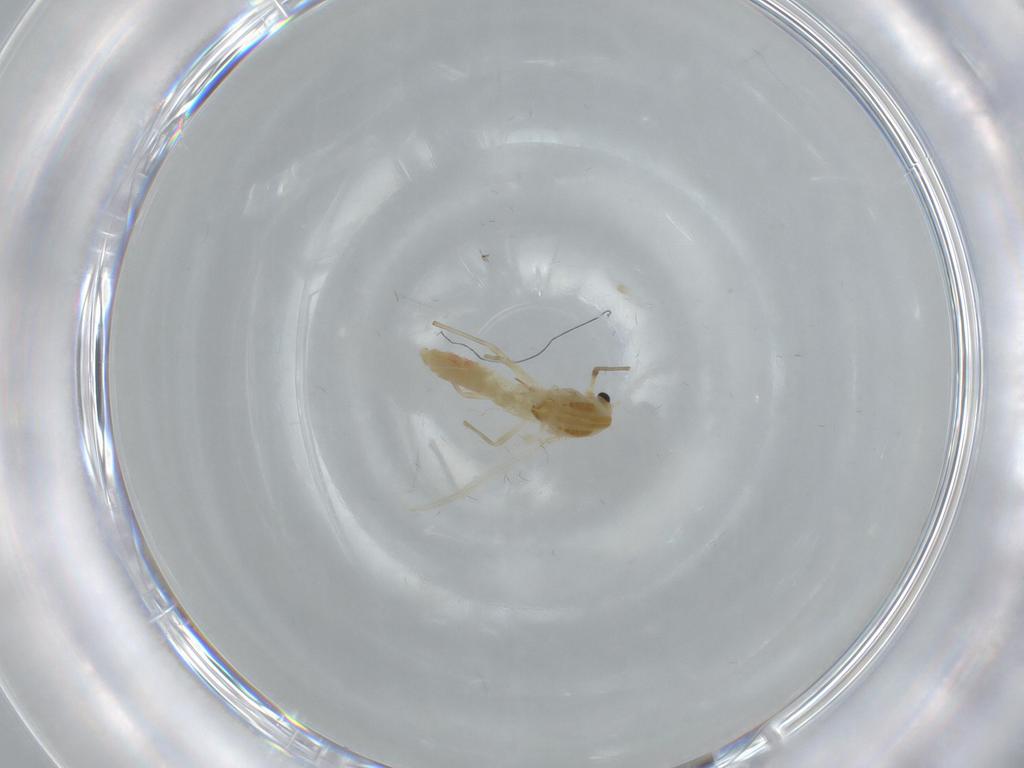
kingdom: Animalia
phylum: Arthropoda
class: Insecta
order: Diptera
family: Chironomidae
